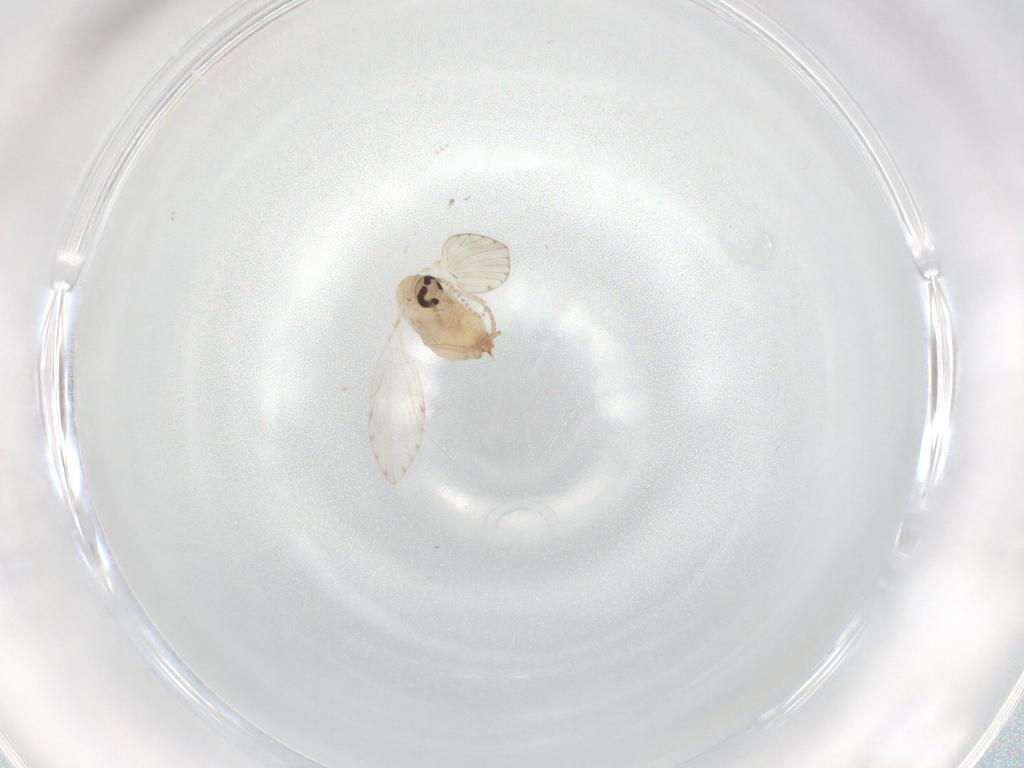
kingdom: Animalia
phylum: Arthropoda
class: Insecta
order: Diptera
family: Psychodidae
